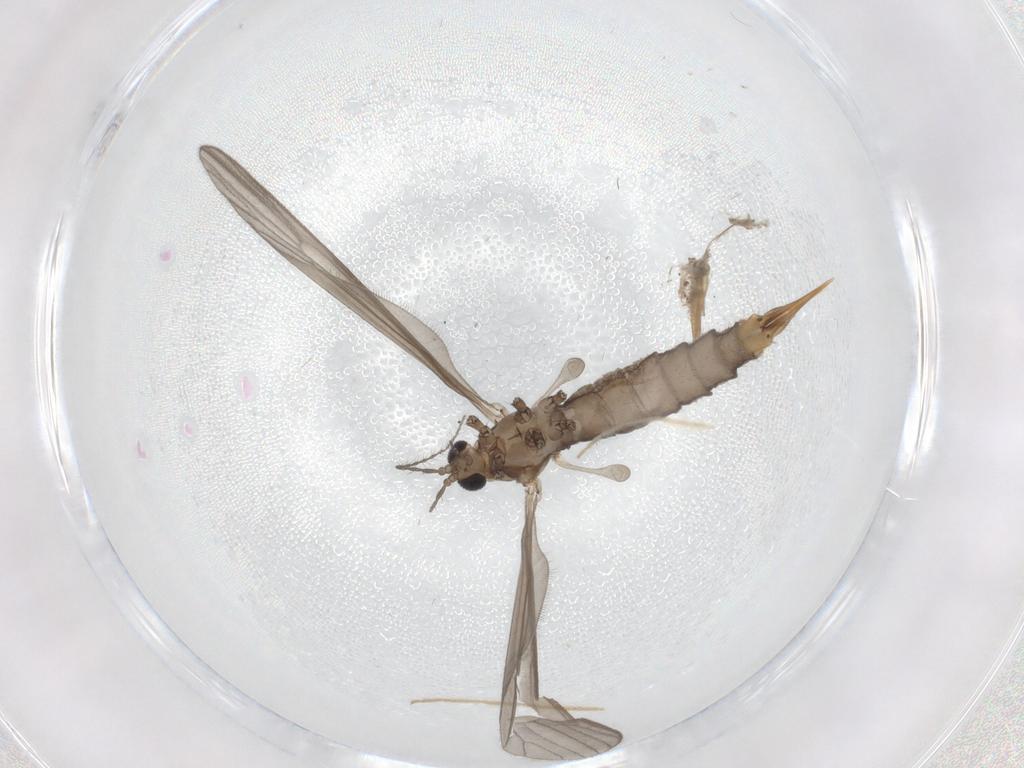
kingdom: Animalia
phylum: Arthropoda
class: Insecta
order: Diptera
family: Limoniidae
